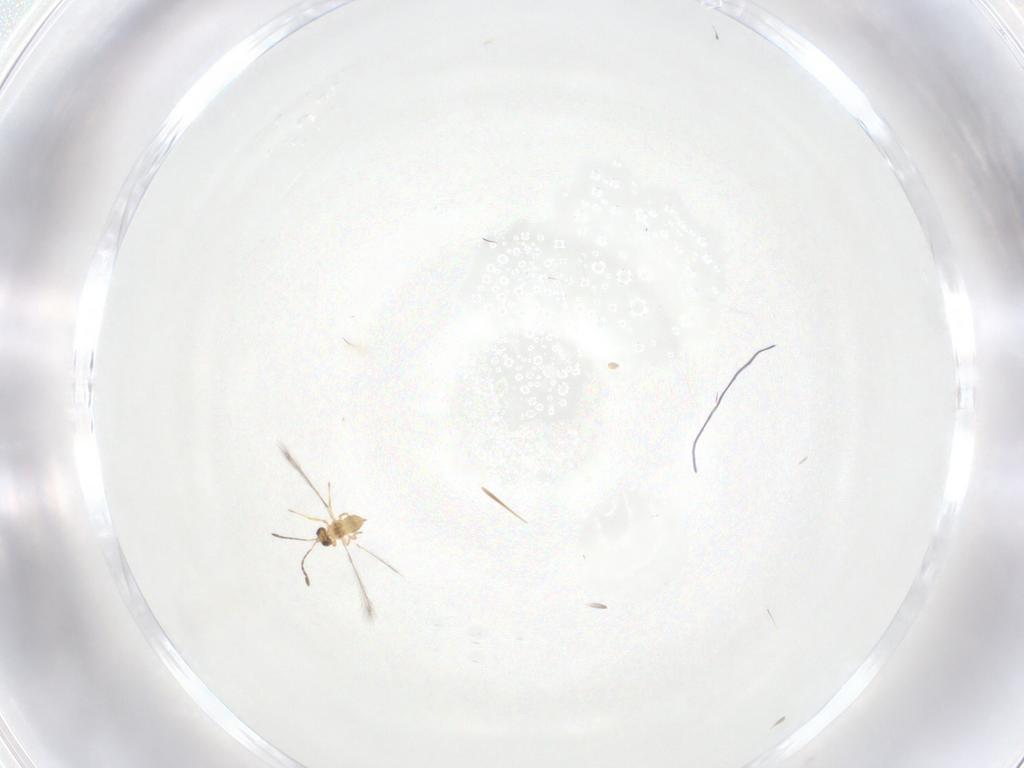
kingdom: Animalia
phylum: Arthropoda
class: Insecta
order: Hymenoptera
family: Mymaridae
